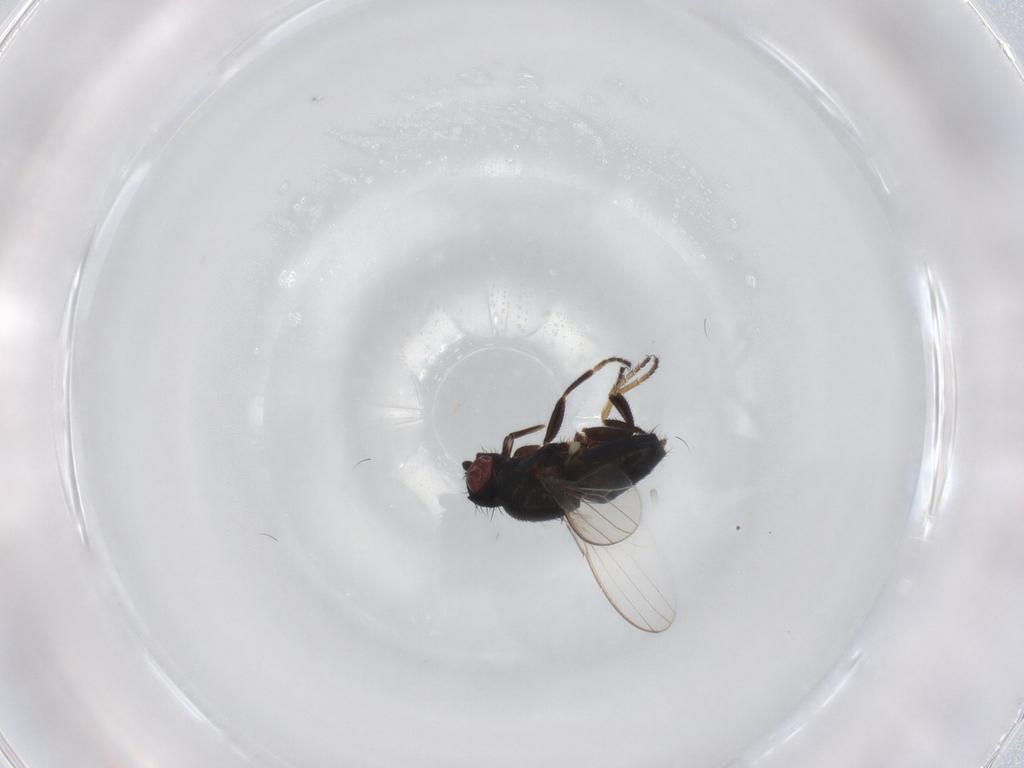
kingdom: Animalia
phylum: Arthropoda
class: Insecta
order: Diptera
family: Milichiidae
